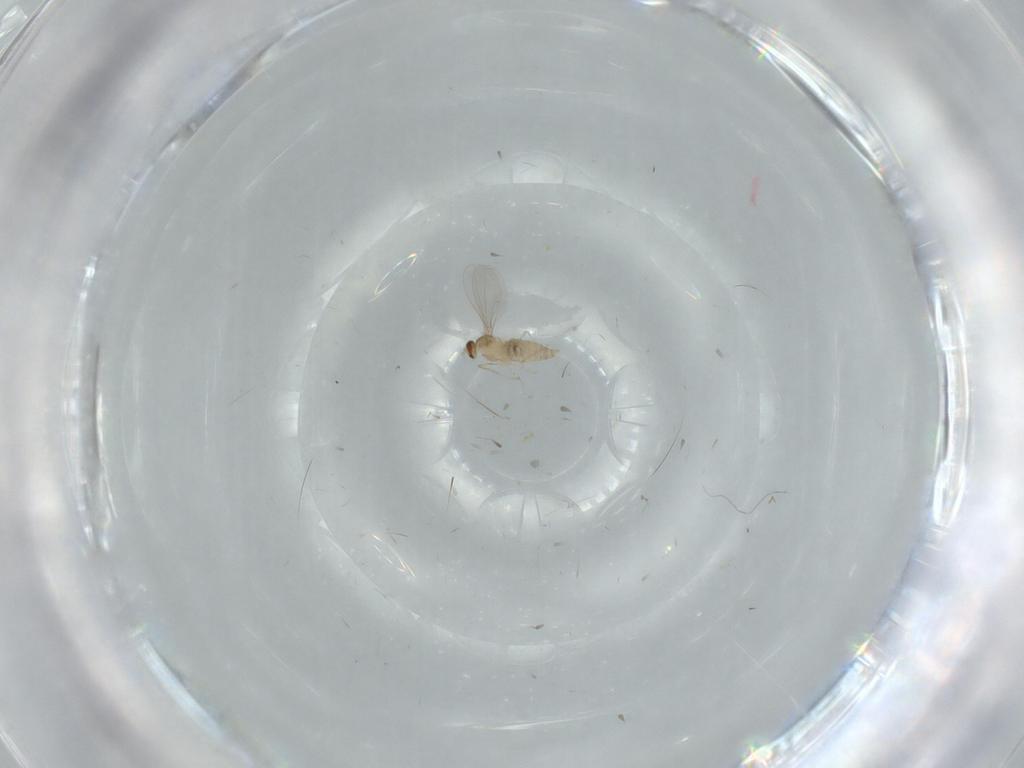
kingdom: Animalia
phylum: Arthropoda
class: Insecta
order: Diptera
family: Cecidomyiidae
